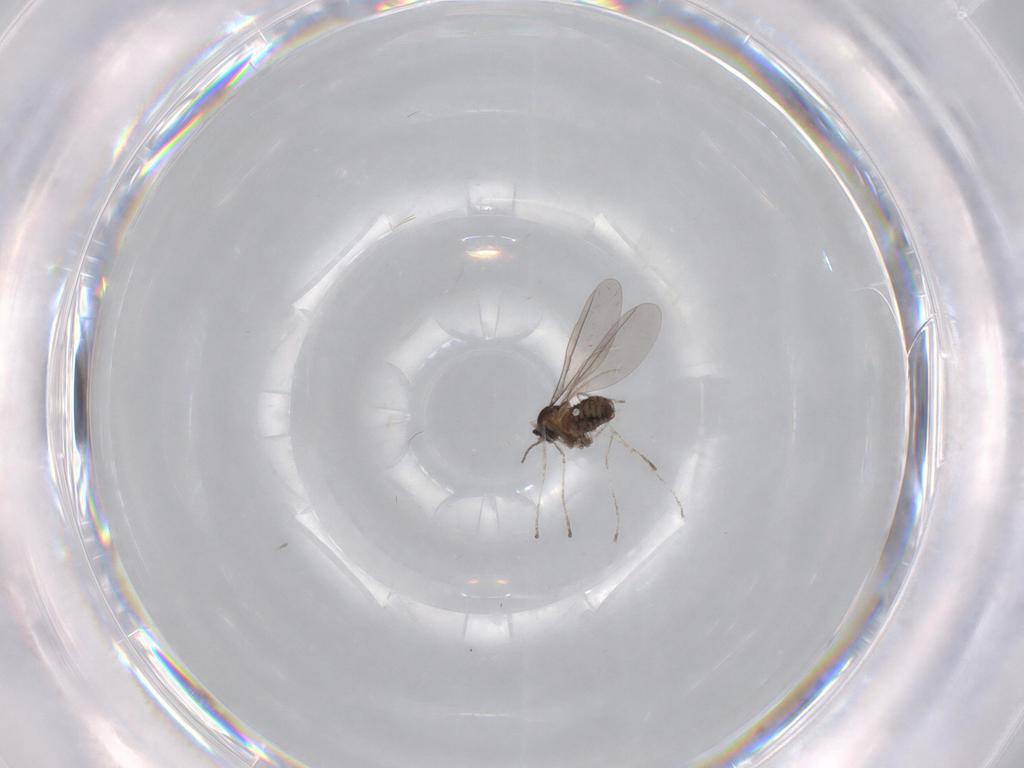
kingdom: Animalia
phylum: Arthropoda
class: Insecta
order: Diptera
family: Cecidomyiidae
